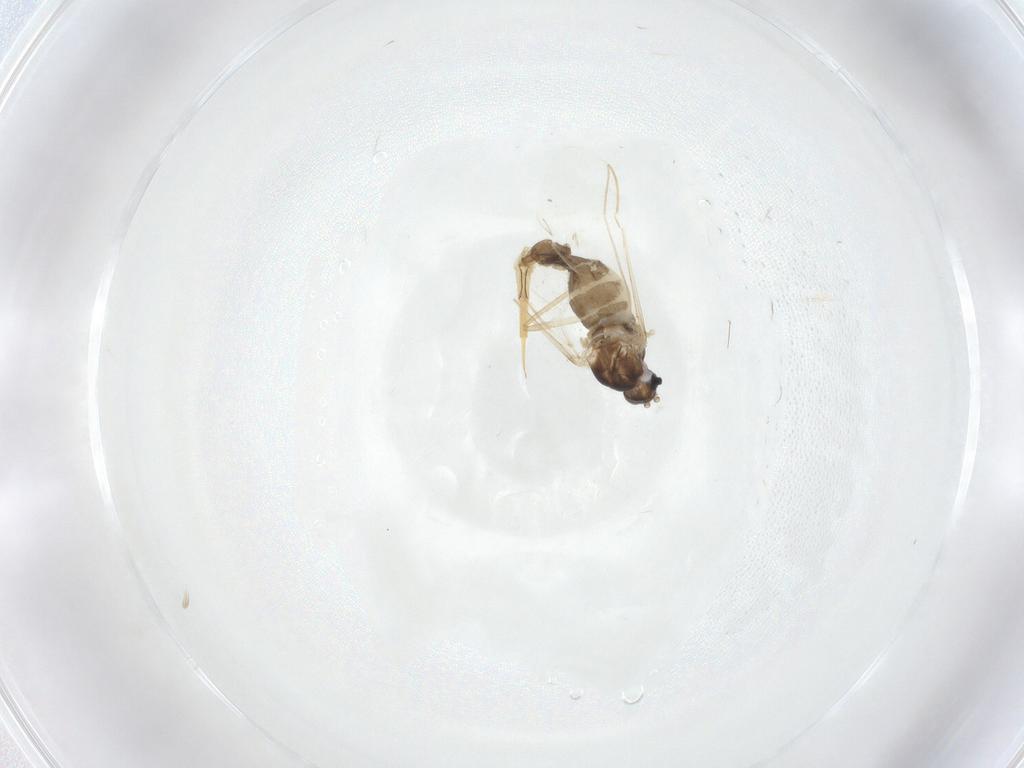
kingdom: Animalia
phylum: Arthropoda
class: Insecta
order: Diptera
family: Cecidomyiidae
